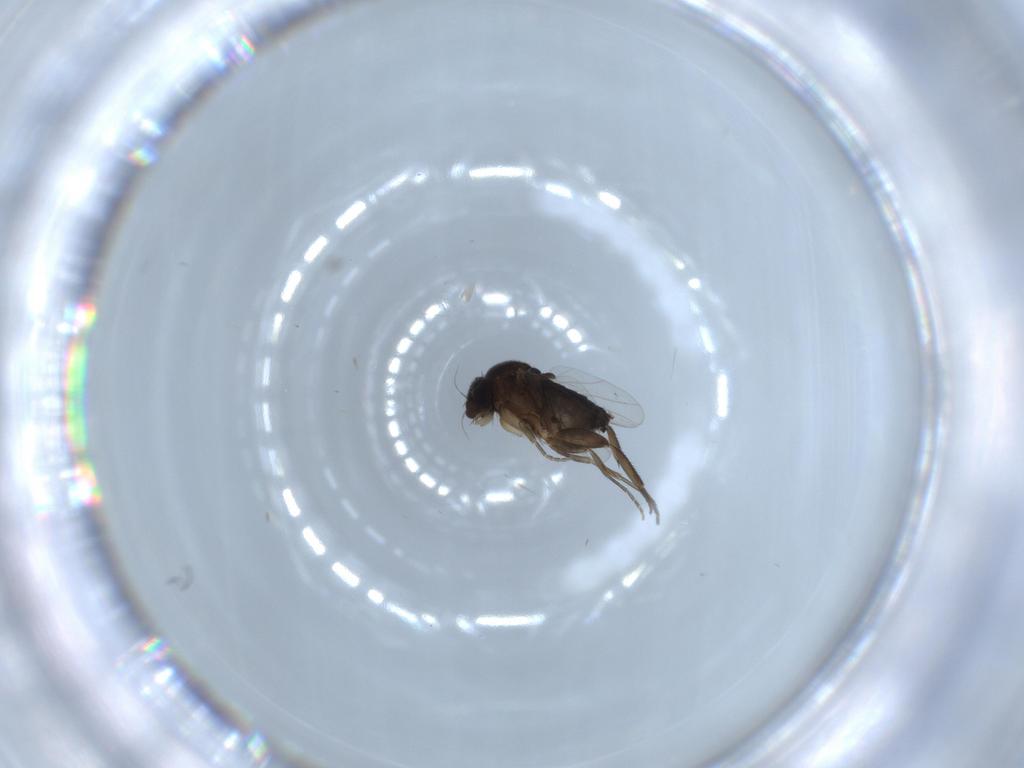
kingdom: Animalia
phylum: Arthropoda
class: Insecta
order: Diptera
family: Phoridae
